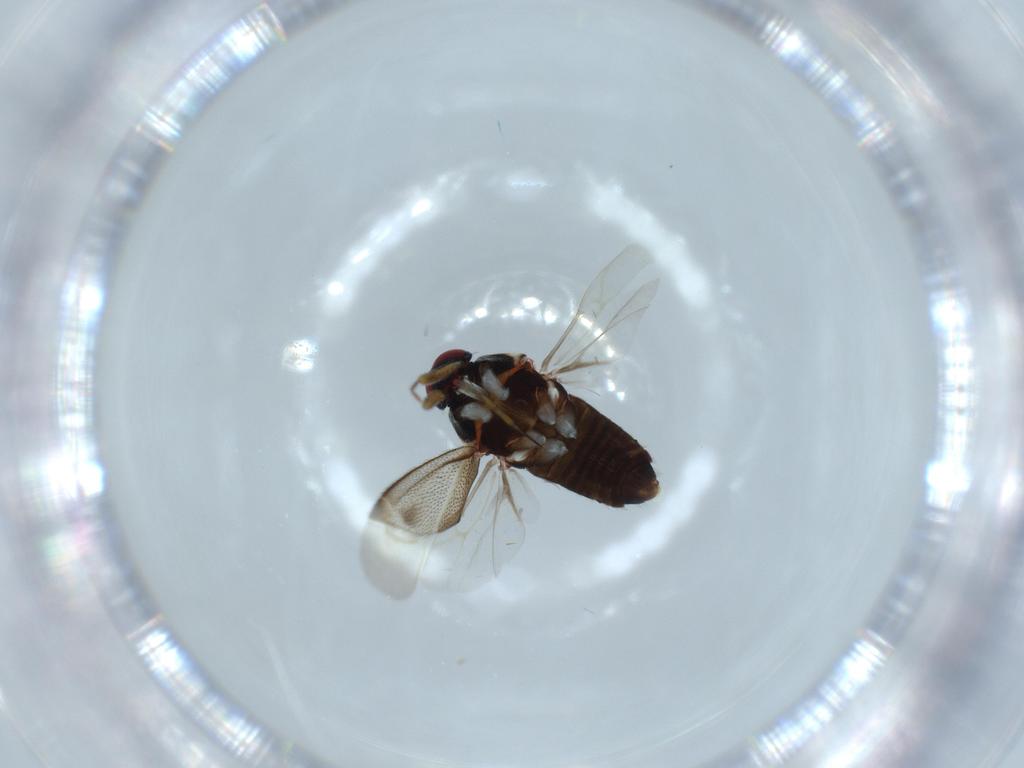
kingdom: Animalia
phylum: Arthropoda
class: Insecta
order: Hemiptera
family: Miridae
